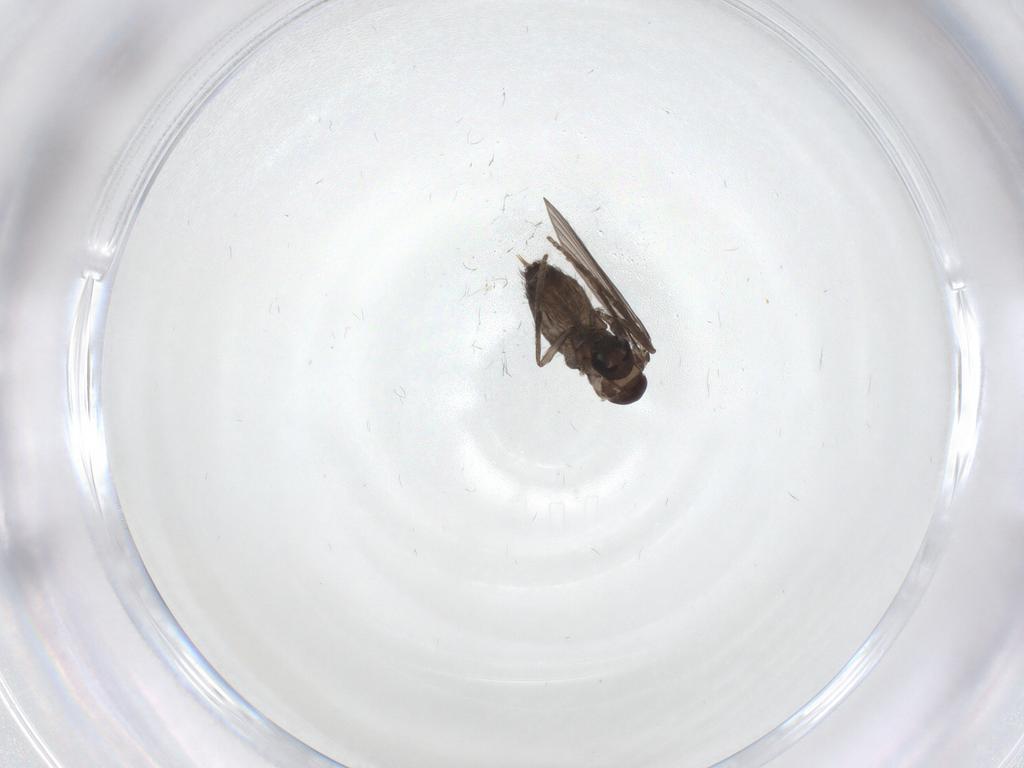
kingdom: Animalia
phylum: Arthropoda
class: Insecta
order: Diptera
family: Psychodidae
